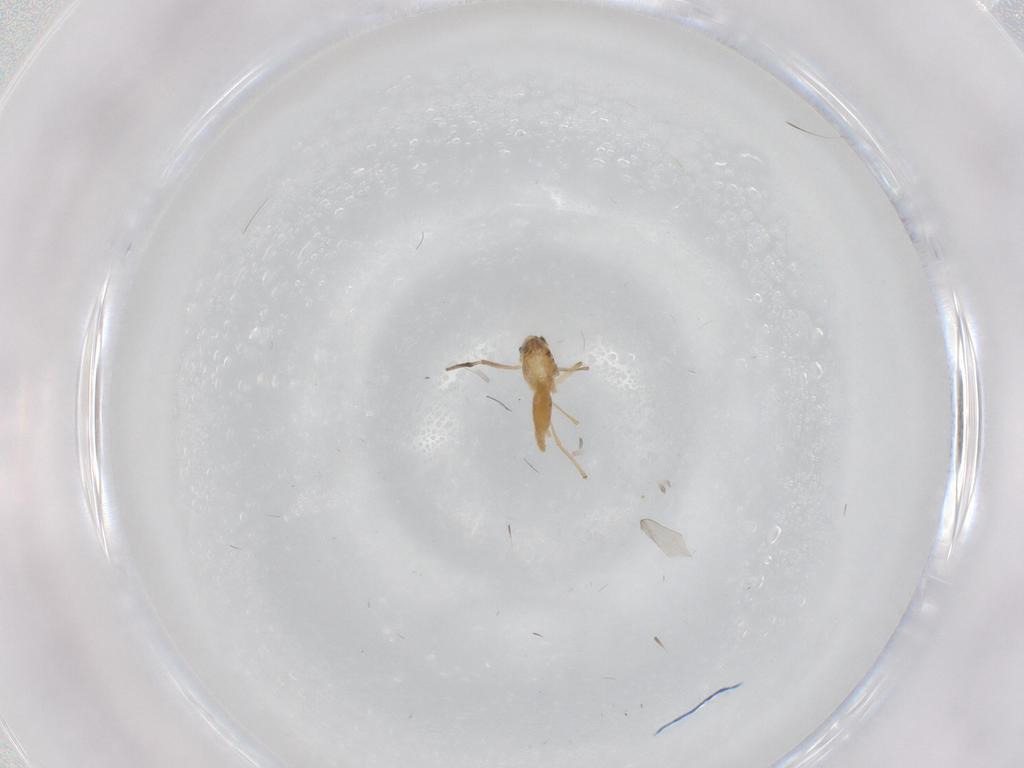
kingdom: Animalia
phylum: Arthropoda
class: Insecta
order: Diptera
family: Chironomidae
